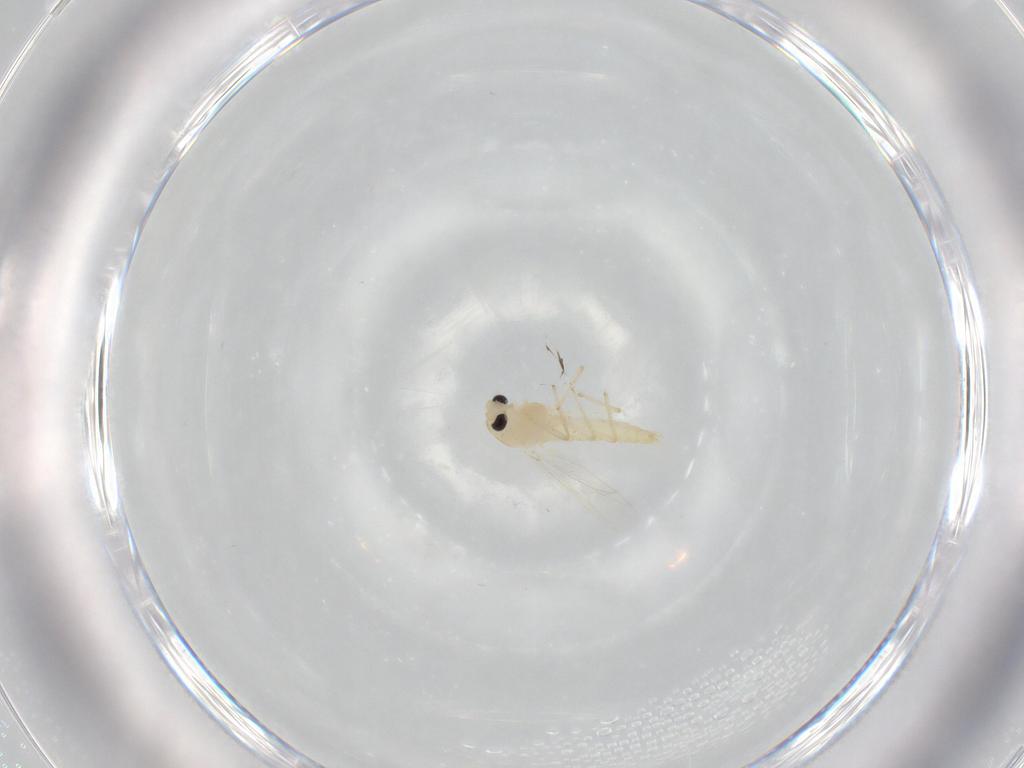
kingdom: Animalia
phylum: Arthropoda
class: Insecta
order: Diptera
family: Chironomidae
